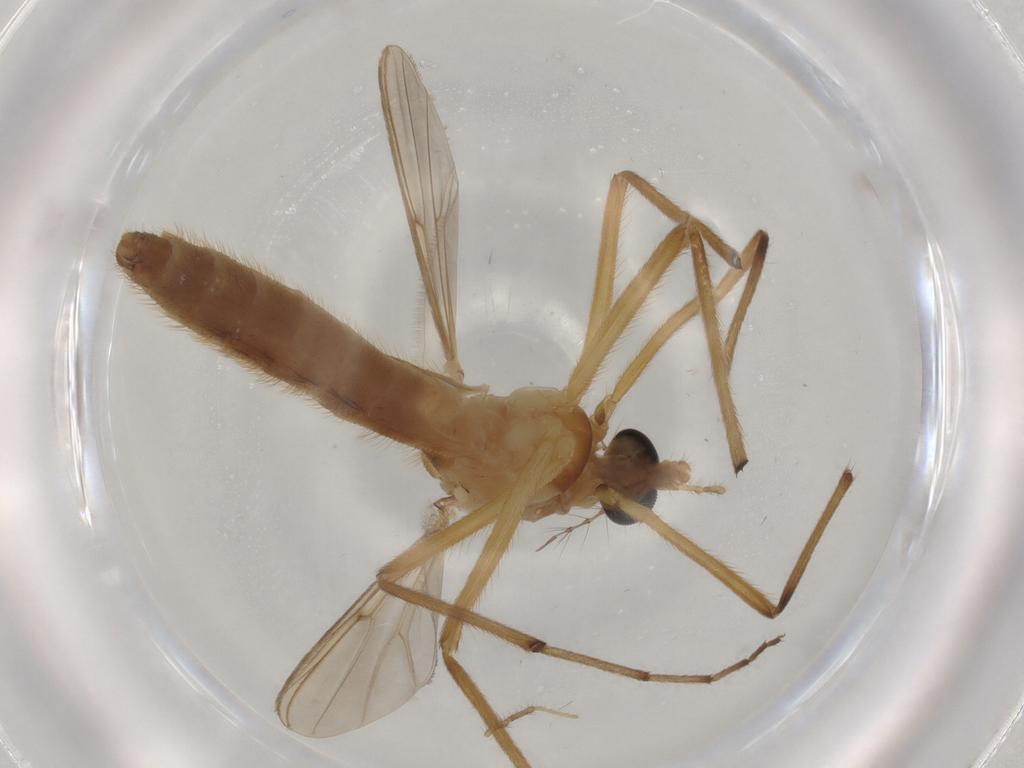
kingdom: Animalia
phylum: Arthropoda
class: Insecta
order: Diptera
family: Chironomidae
